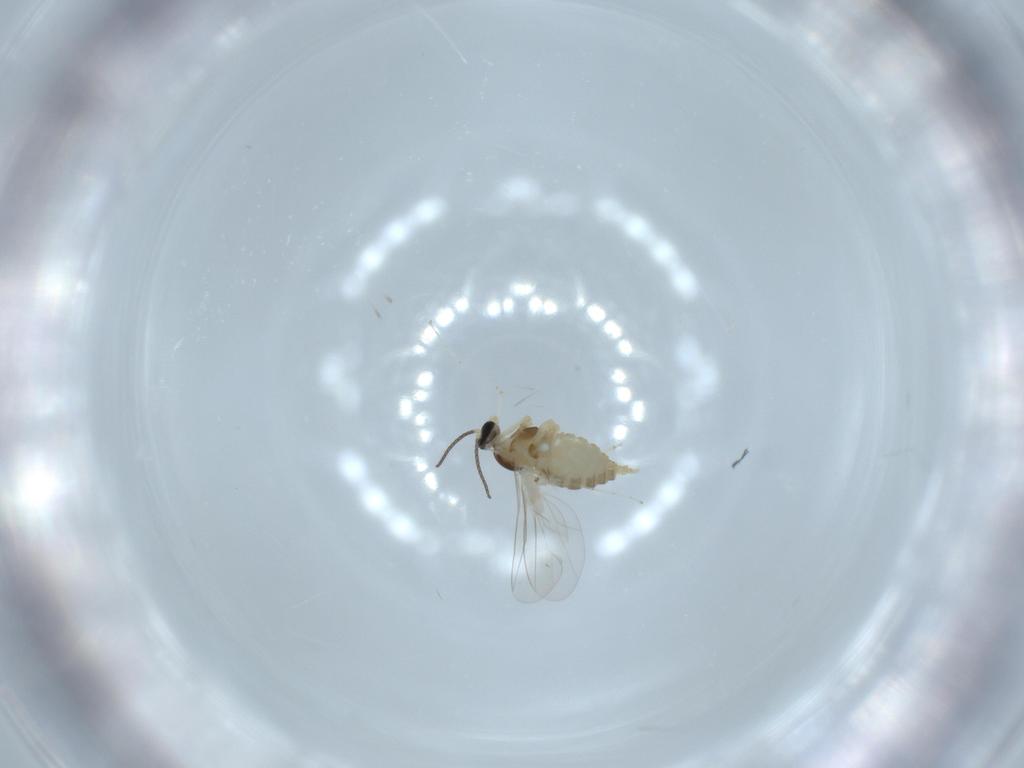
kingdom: Animalia
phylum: Arthropoda
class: Insecta
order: Diptera
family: Cecidomyiidae
